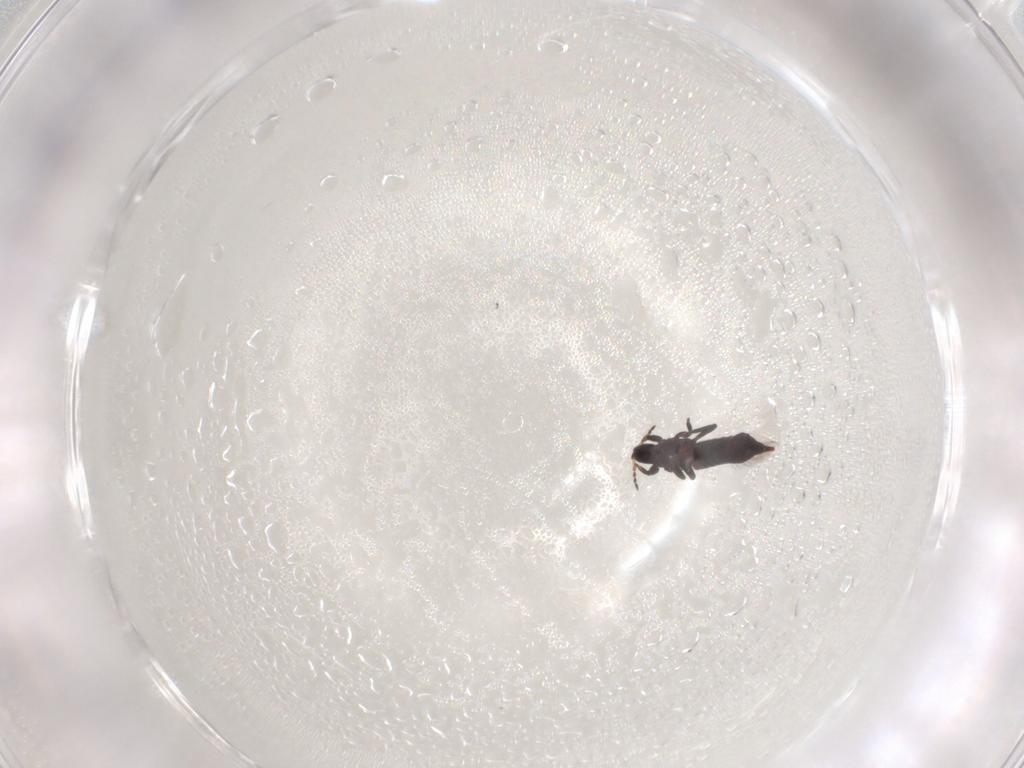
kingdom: Animalia
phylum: Arthropoda
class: Insecta
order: Thysanoptera
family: Phlaeothripidae
